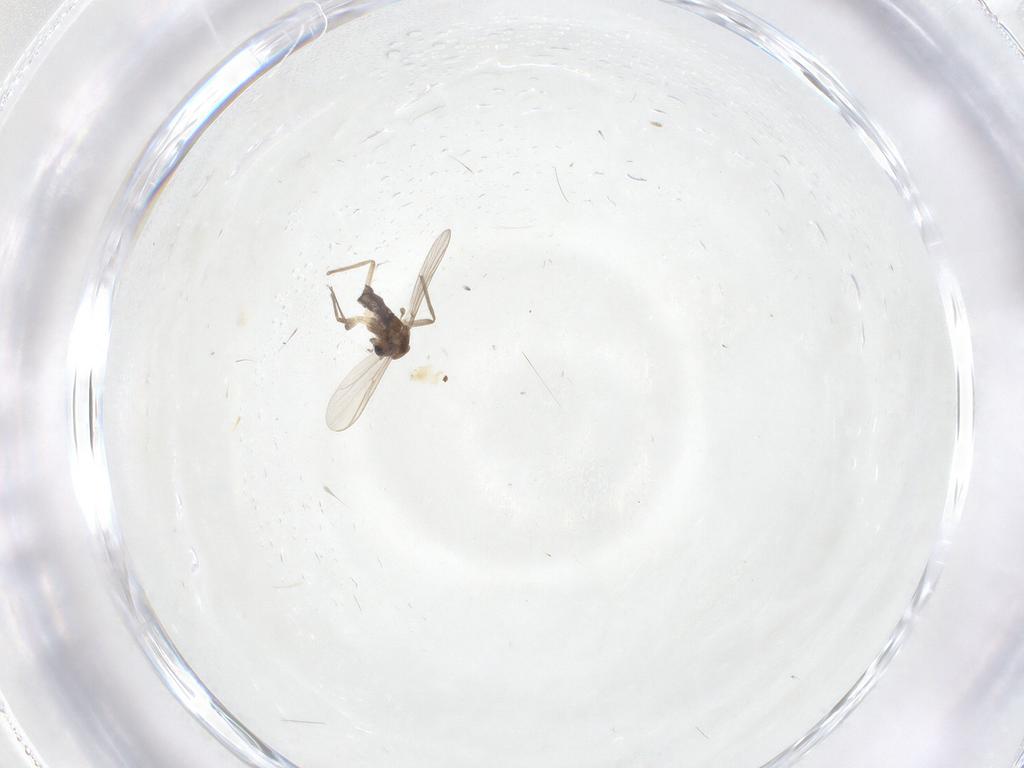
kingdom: Animalia
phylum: Arthropoda
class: Insecta
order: Diptera
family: Chironomidae
